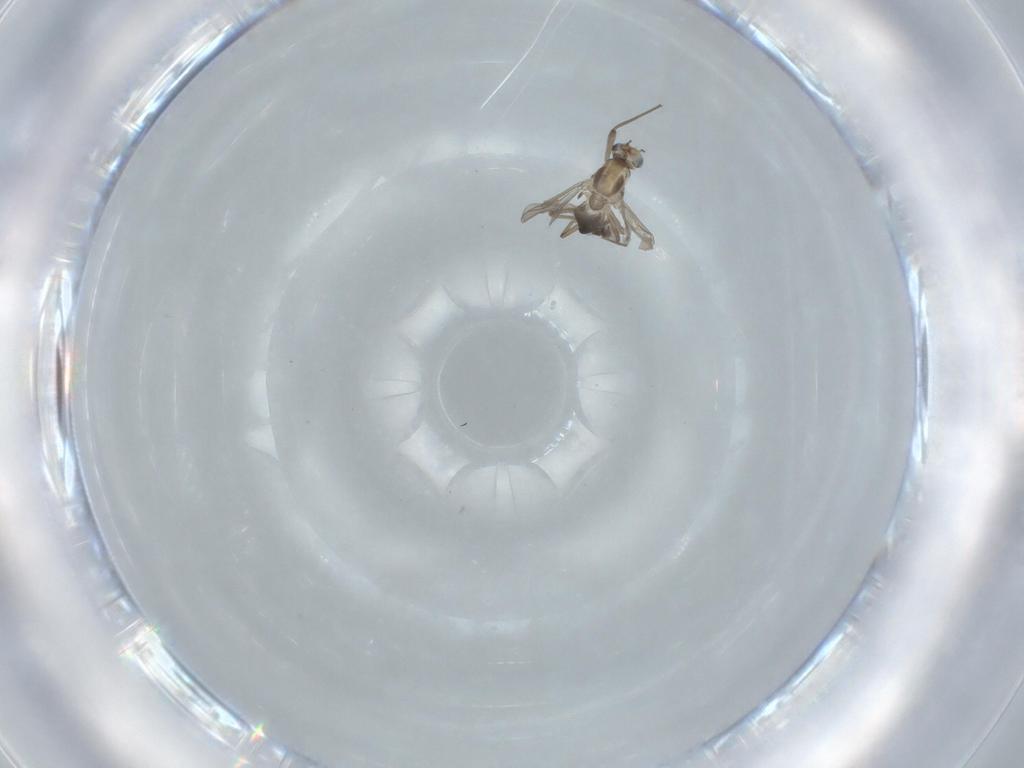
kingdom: Animalia
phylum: Arthropoda
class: Insecta
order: Diptera
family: Chironomidae
